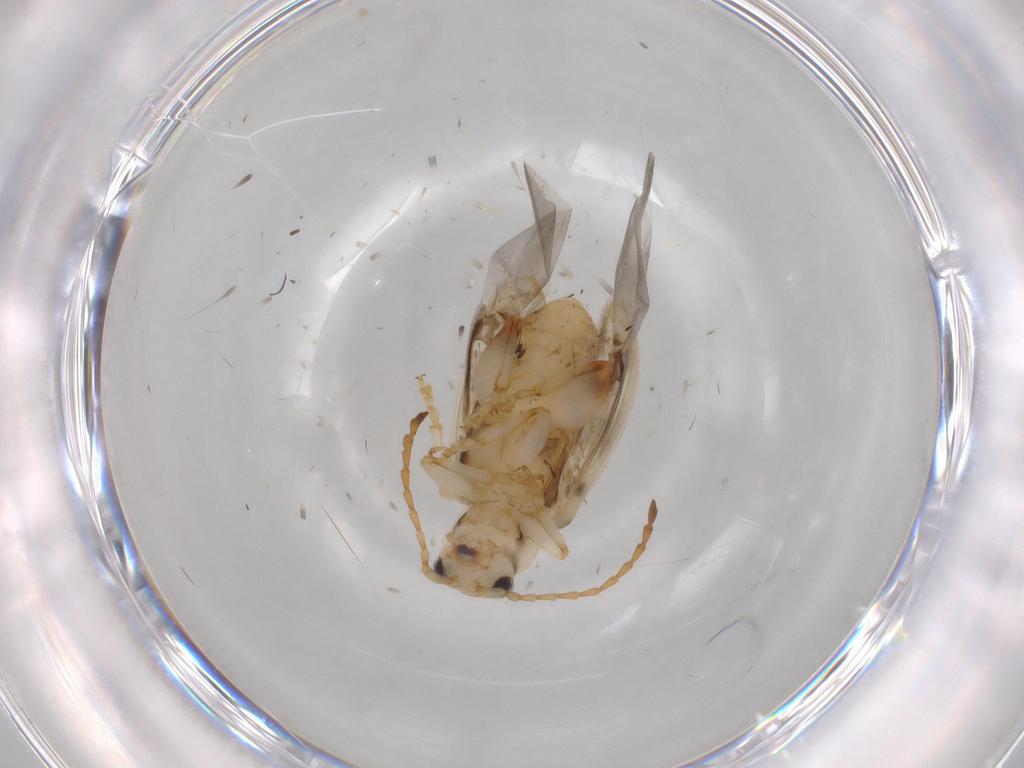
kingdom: Animalia
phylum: Arthropoda
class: Insecta
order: Coleoptera
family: Chrysomelidae
